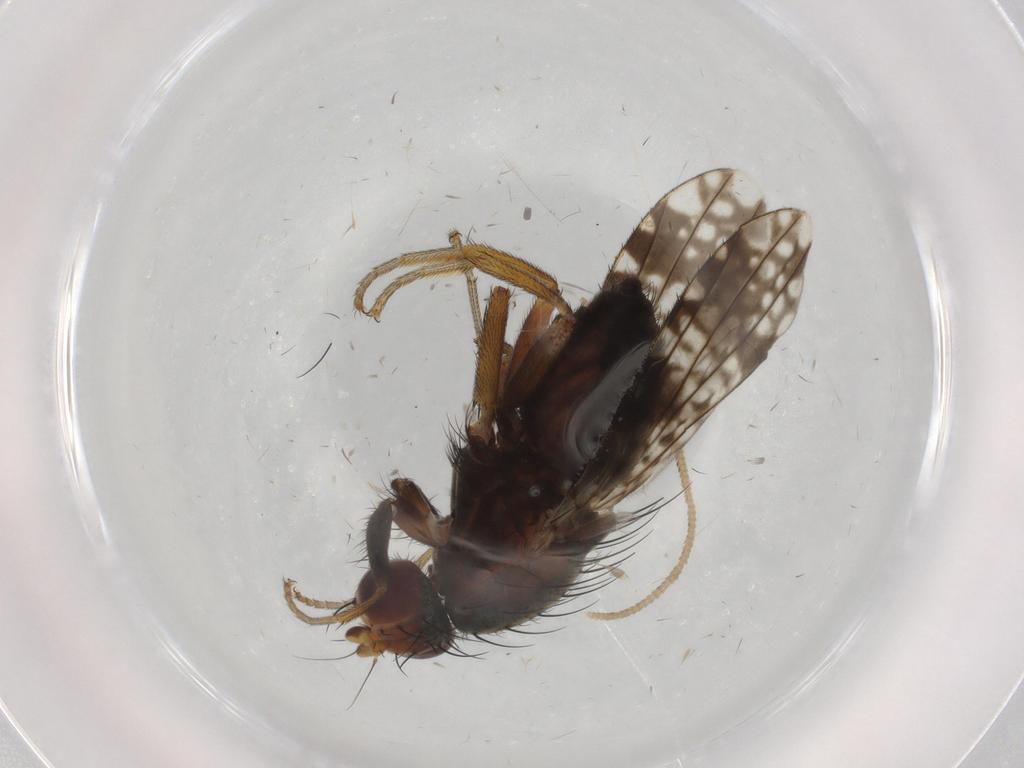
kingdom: Animalia
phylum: Arthropoda
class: Insecta
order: Diptera
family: Tephritidae
